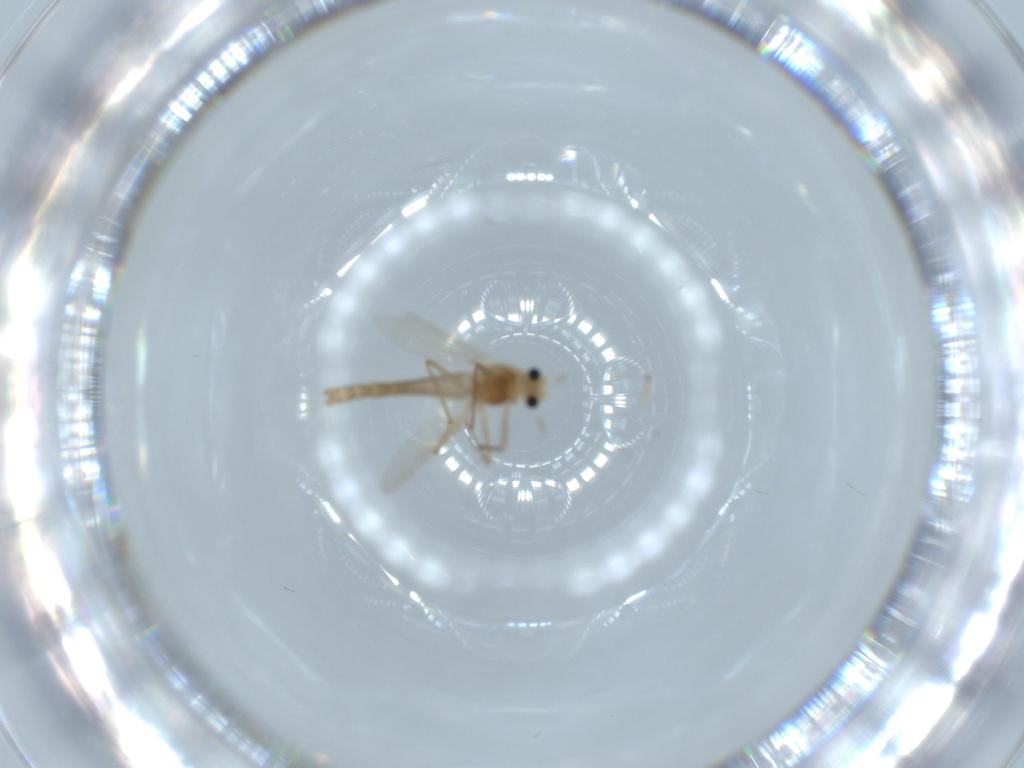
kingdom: Animalia
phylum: Arthropoda
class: Insecta
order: Diptera
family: Chironomidae
